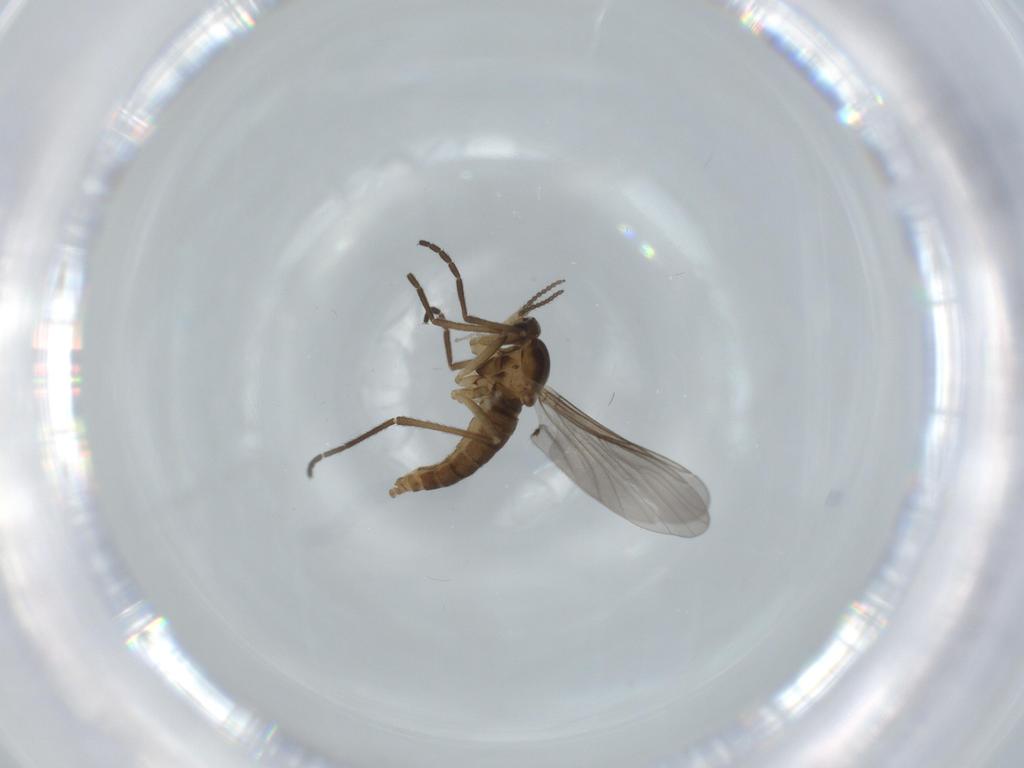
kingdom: Animalia
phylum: Arthropoda
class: Insecta
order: Diptera
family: Cecidomyiidae
